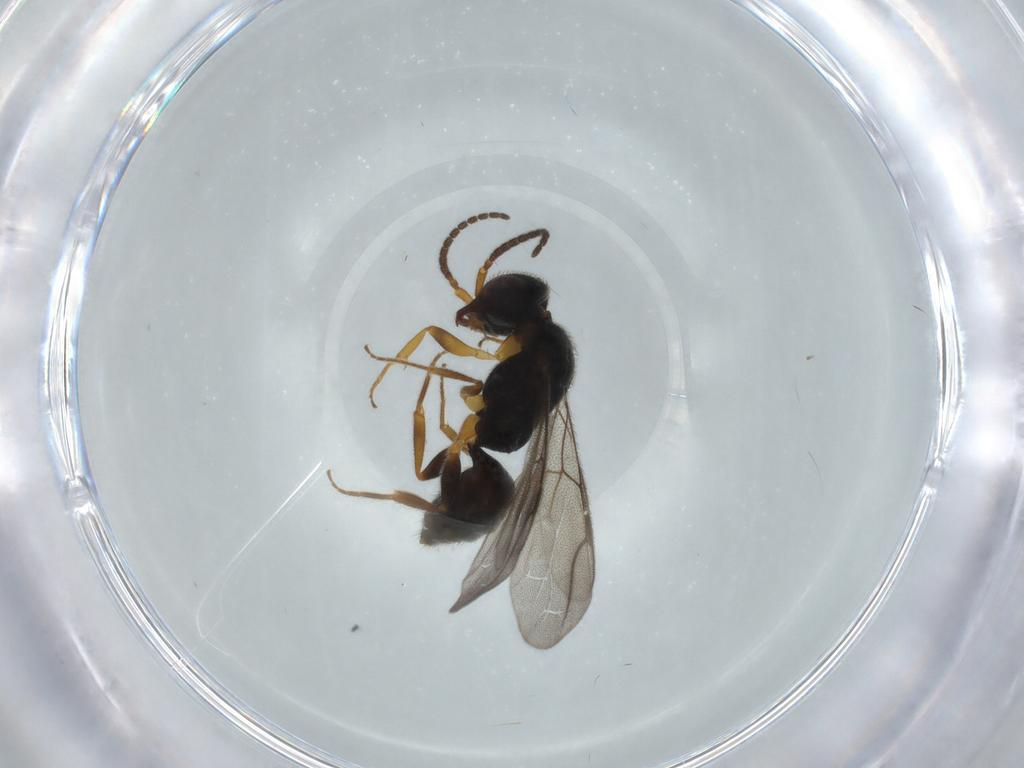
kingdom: Animalia
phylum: Arthropoda
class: Insecta
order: Hymenoptera
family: Bethylidae
